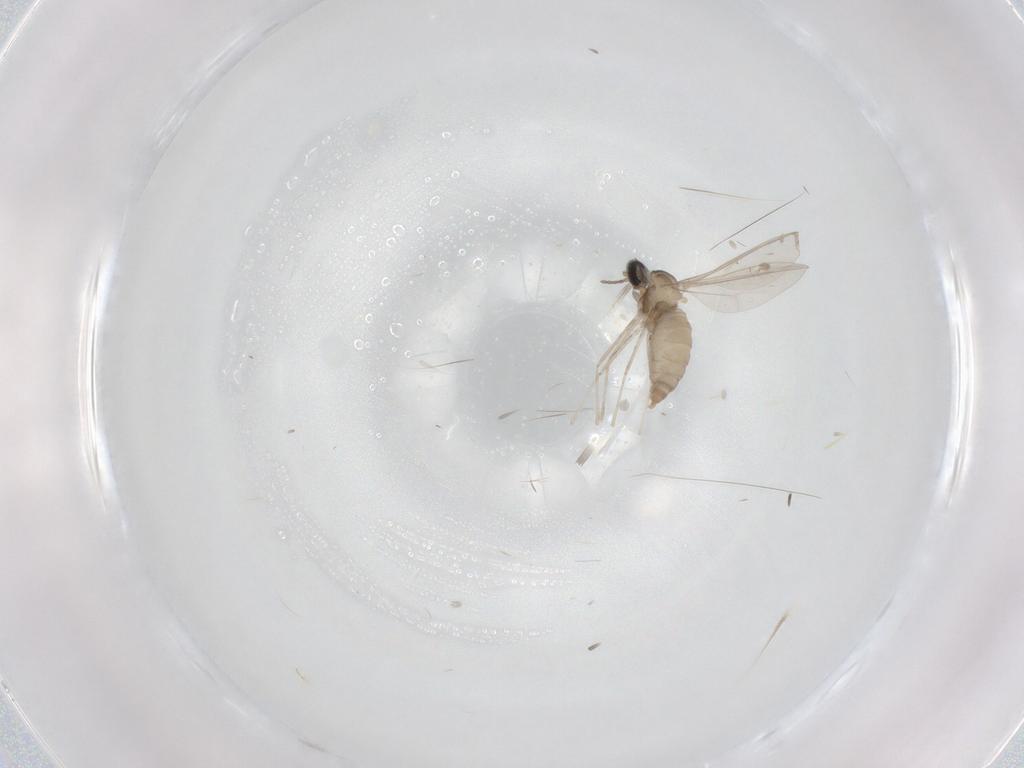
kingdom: Animalia
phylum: Arthropoda
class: Insecta
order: Diptera
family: Cecidomyiidae
